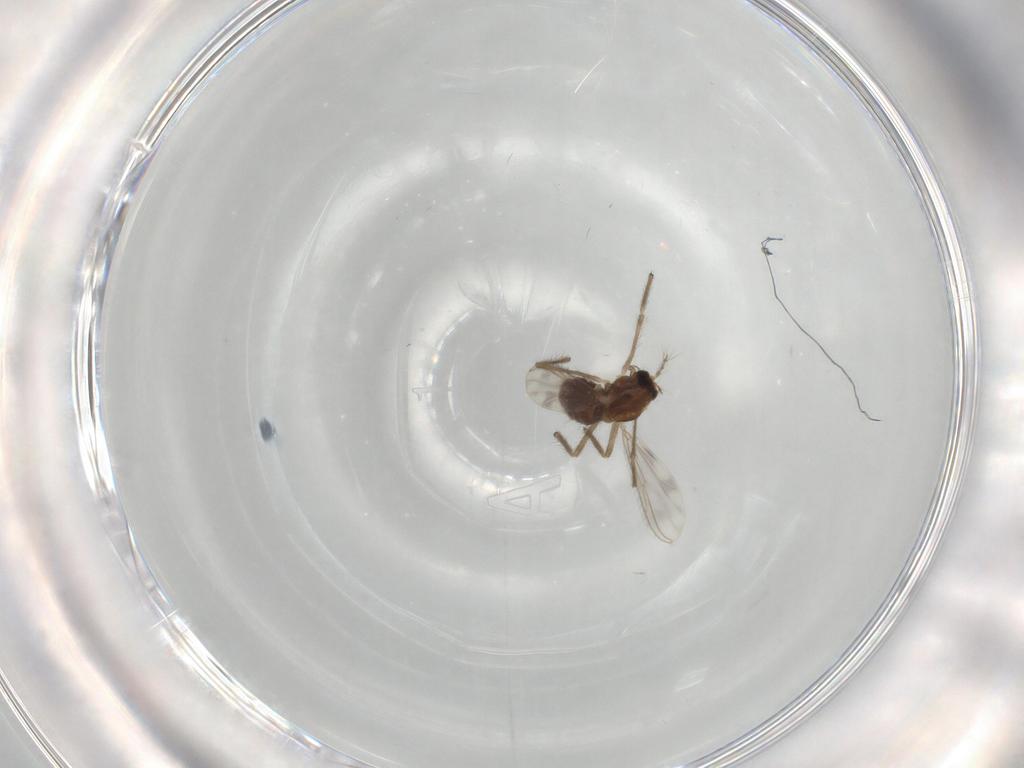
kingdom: Animalia
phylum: Arthropoda
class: Insecta
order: Diptera
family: Chironomidae
